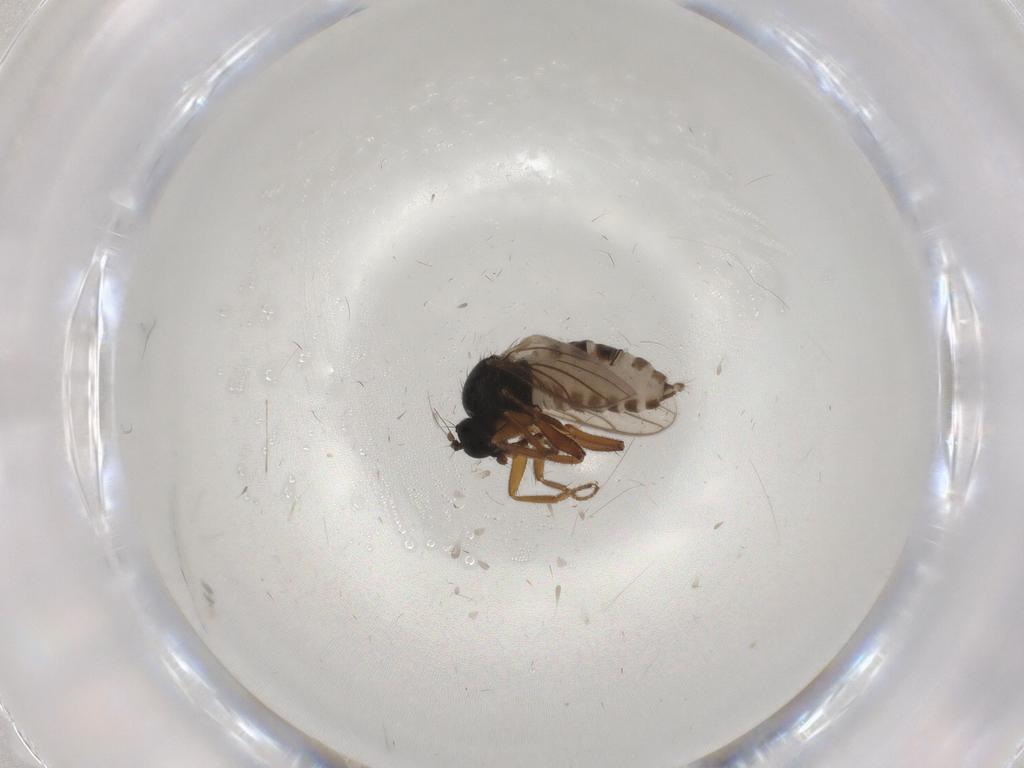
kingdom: Animalia
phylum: Arthropoda
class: Insecta
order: Diptera
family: Hybotidae
